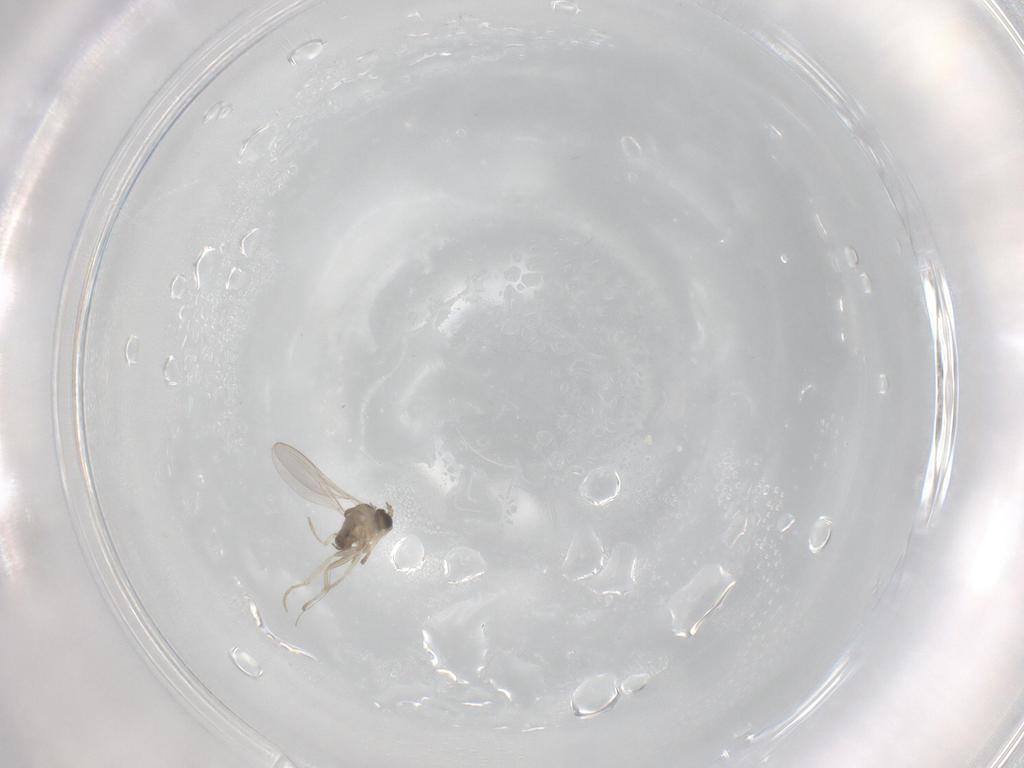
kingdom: Animalia
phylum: Arthropoda
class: Insecta
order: Diptera
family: Cecidomyiidae
